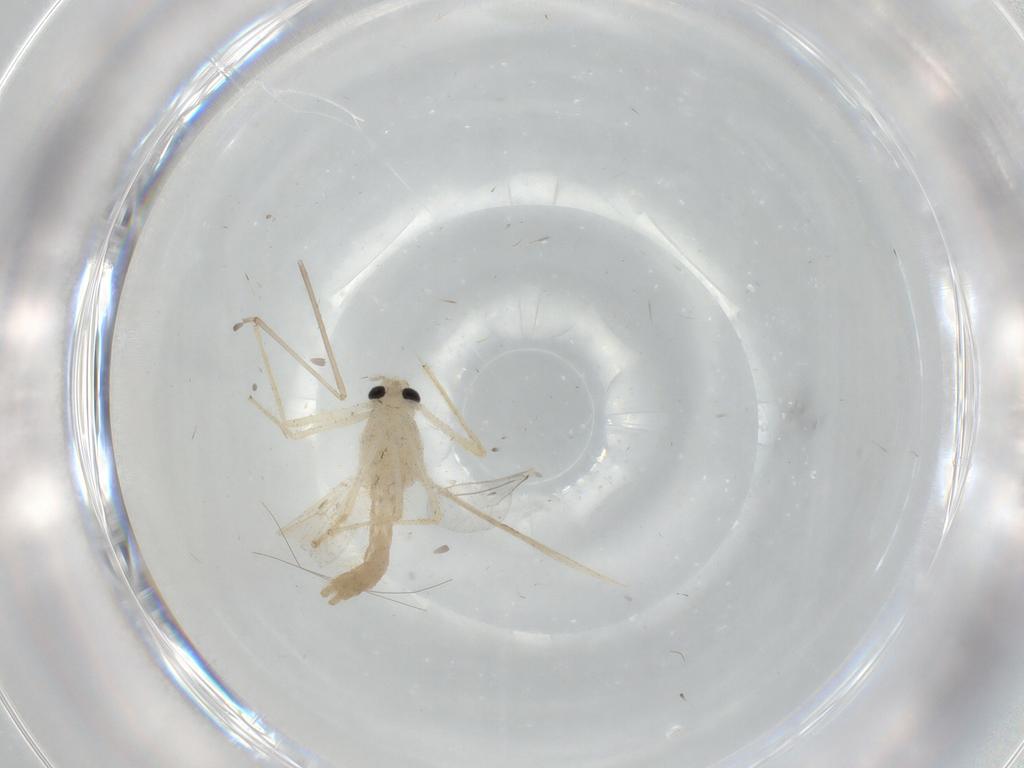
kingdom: Animalia
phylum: Arthropoda
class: Insecta
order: Diptera
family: Chironomidae
